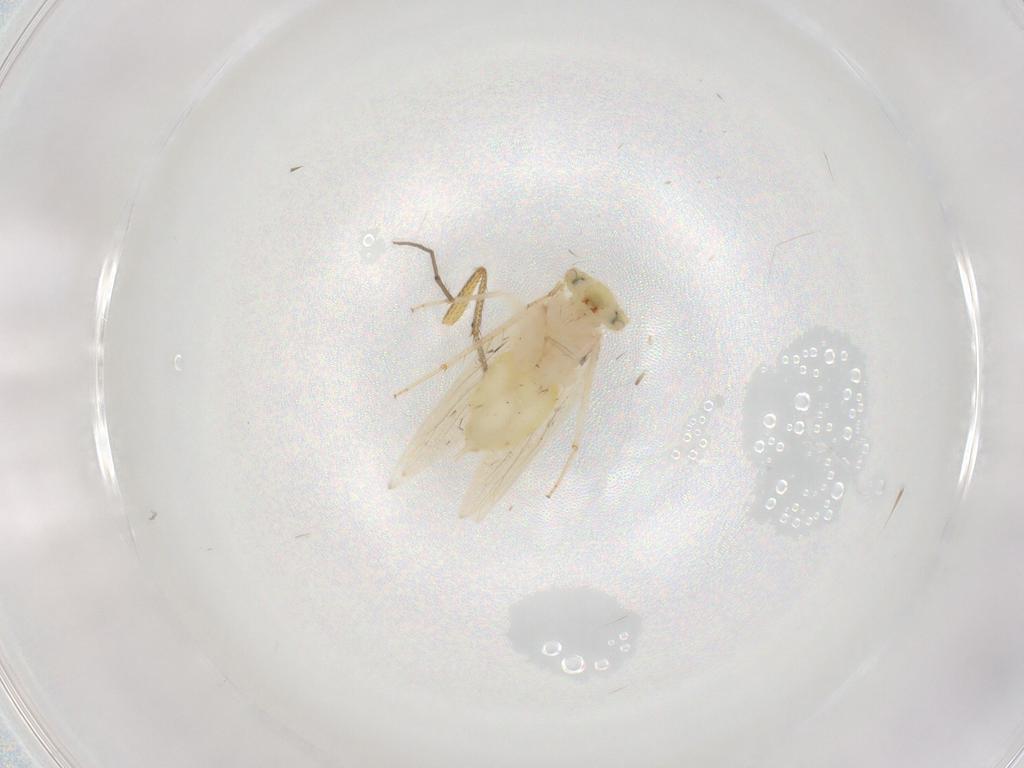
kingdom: Animalia
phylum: Arthropoda
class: Insecta
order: Psocodea
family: Lepidopsocidae
